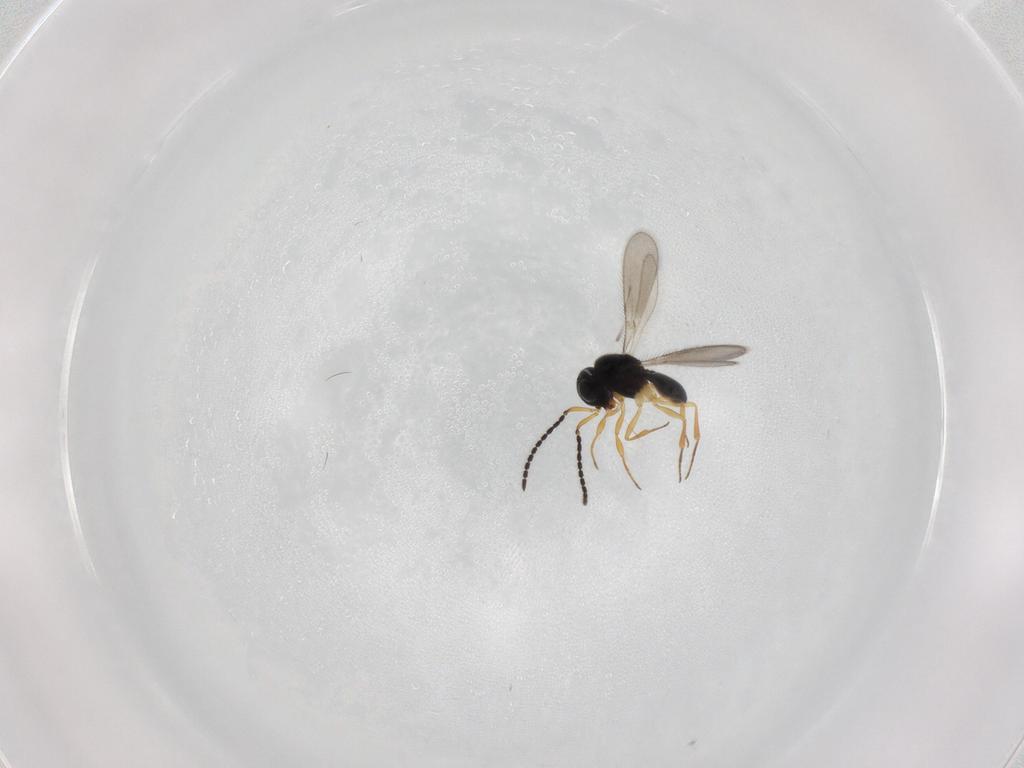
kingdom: Animalia
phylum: Arthropoda
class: Insecta
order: Hymenoptera
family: Scelionidae
